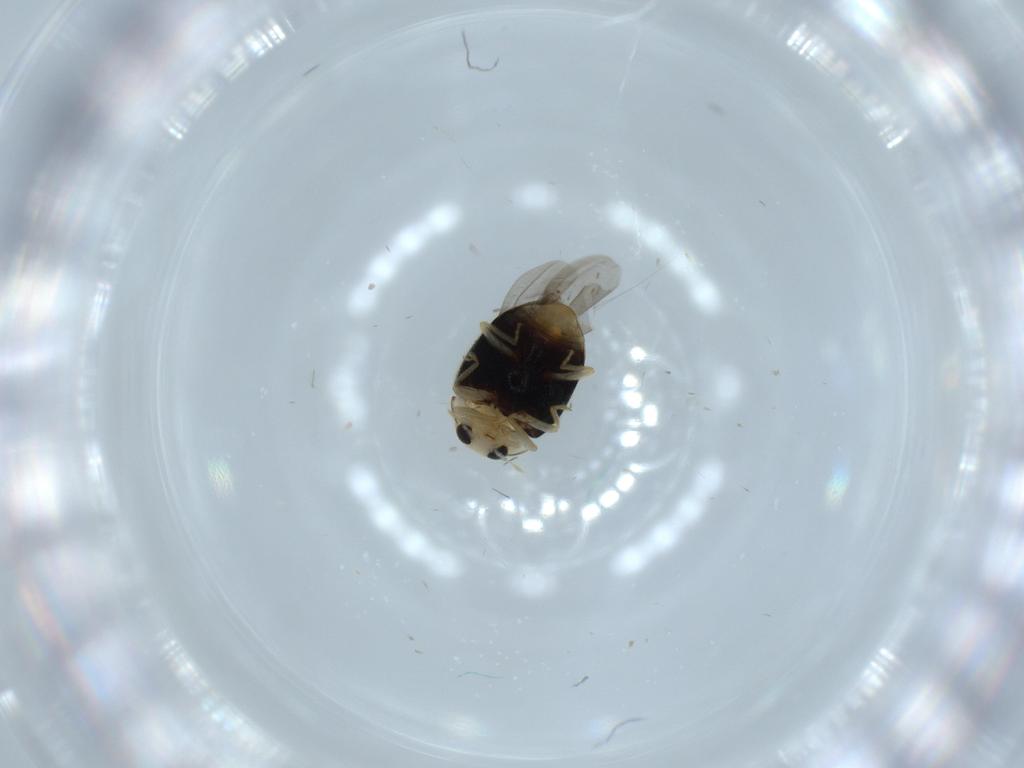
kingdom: Animalia
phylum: Arthropoda
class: Insecta
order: Coleoptera
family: Coccinellidae
